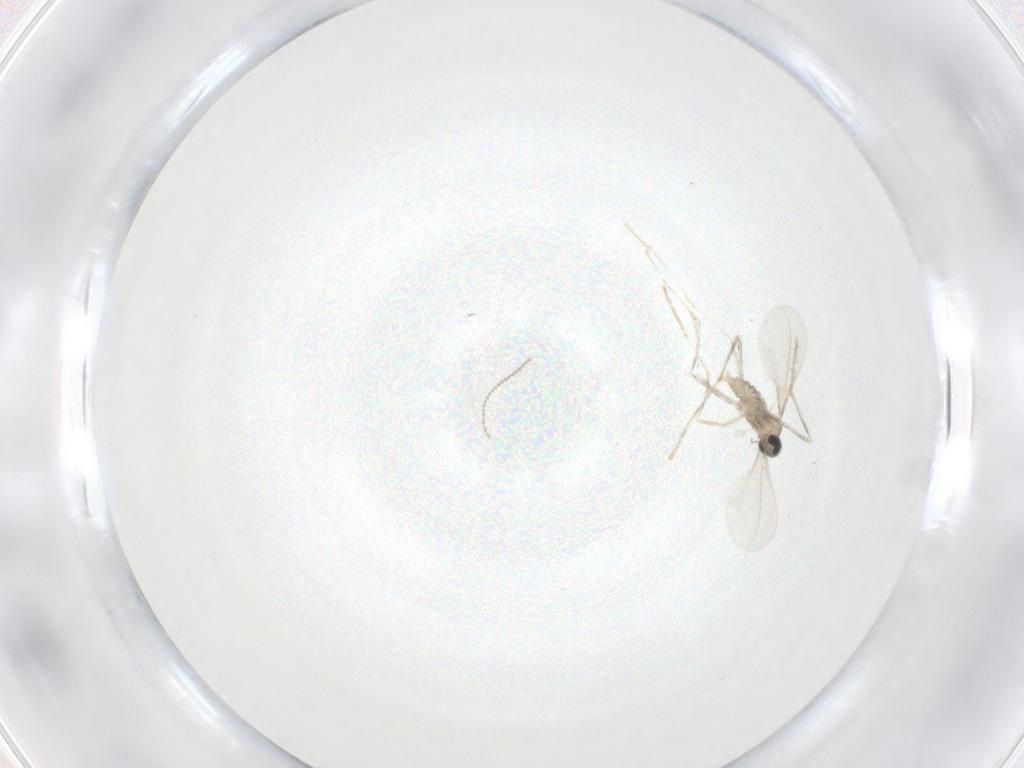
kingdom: Animalia
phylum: Arthropoda
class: Insecta
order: Diptera
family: Cecidomyiidae
